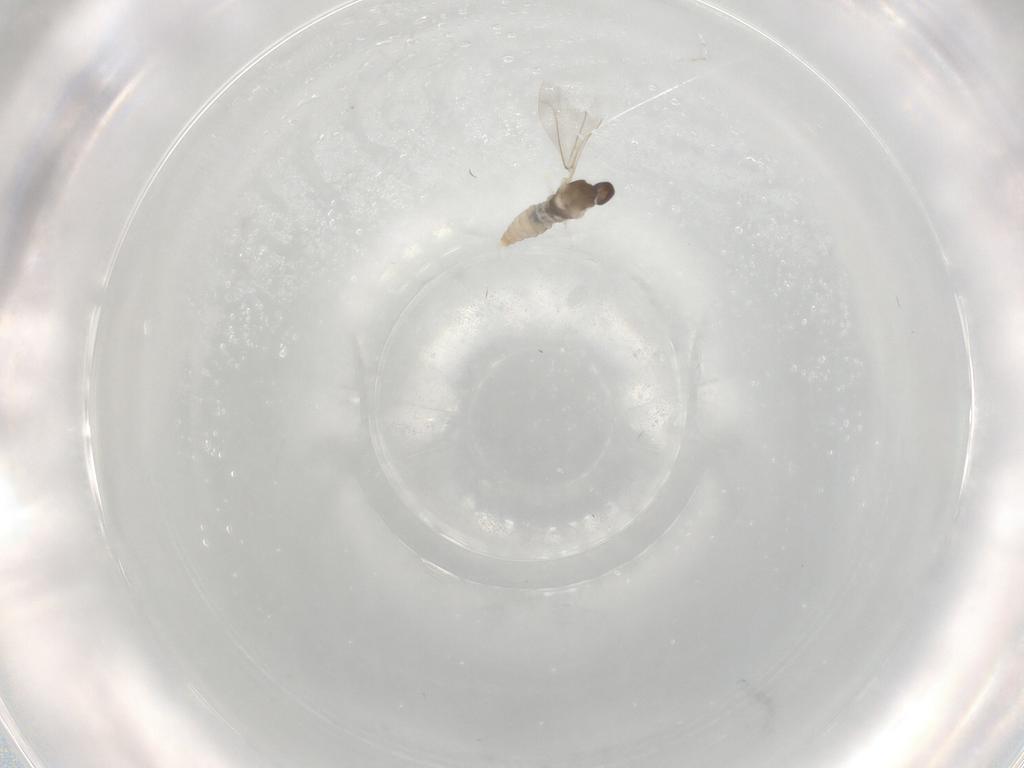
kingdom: Animalia
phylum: Arthropoda
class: Insecta
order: Diptera
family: Cecidomyiidae
